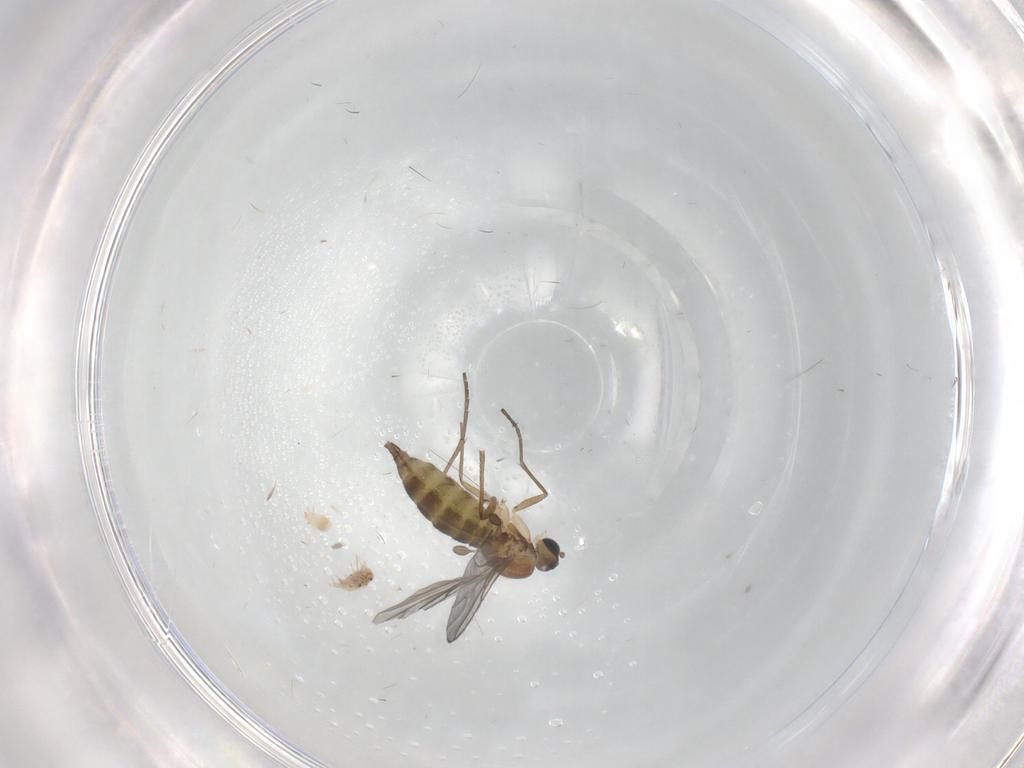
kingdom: Animalia
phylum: Arthropoda
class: Insecta
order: Diptera
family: Sciaridae
